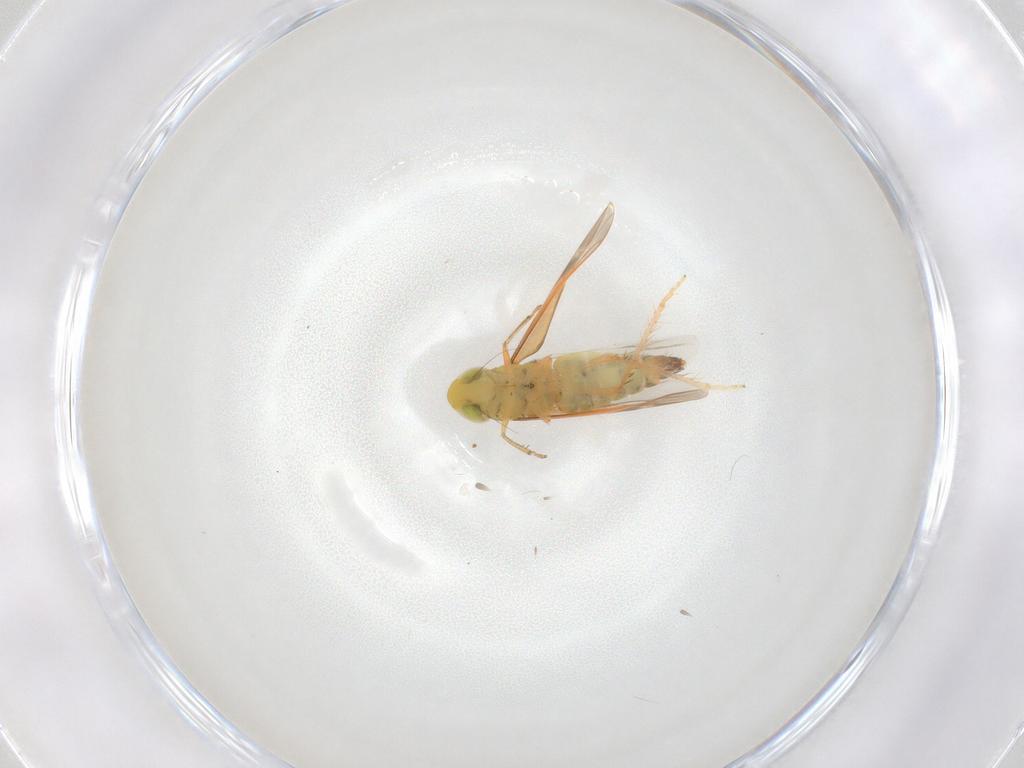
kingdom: Animalia
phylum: Arthropoda
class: Insecta
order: Hemiptera
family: Cicadellidae
